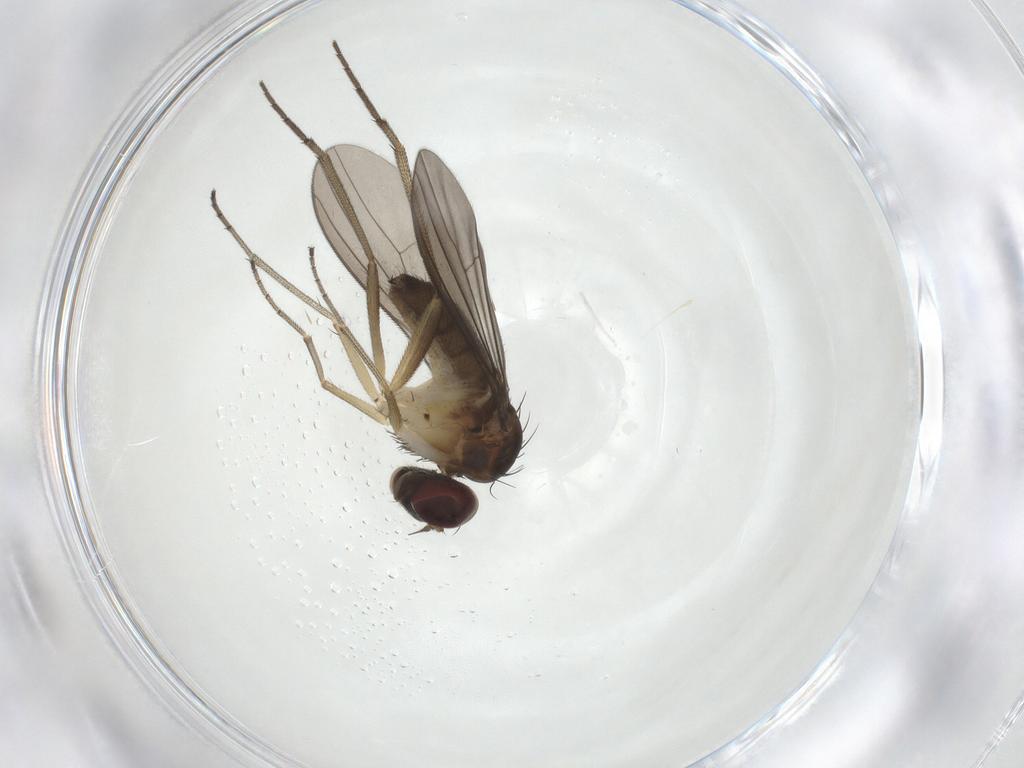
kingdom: Animalia
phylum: Arthropoda
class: Insecta
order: Diptera
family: Dolichopodidae
